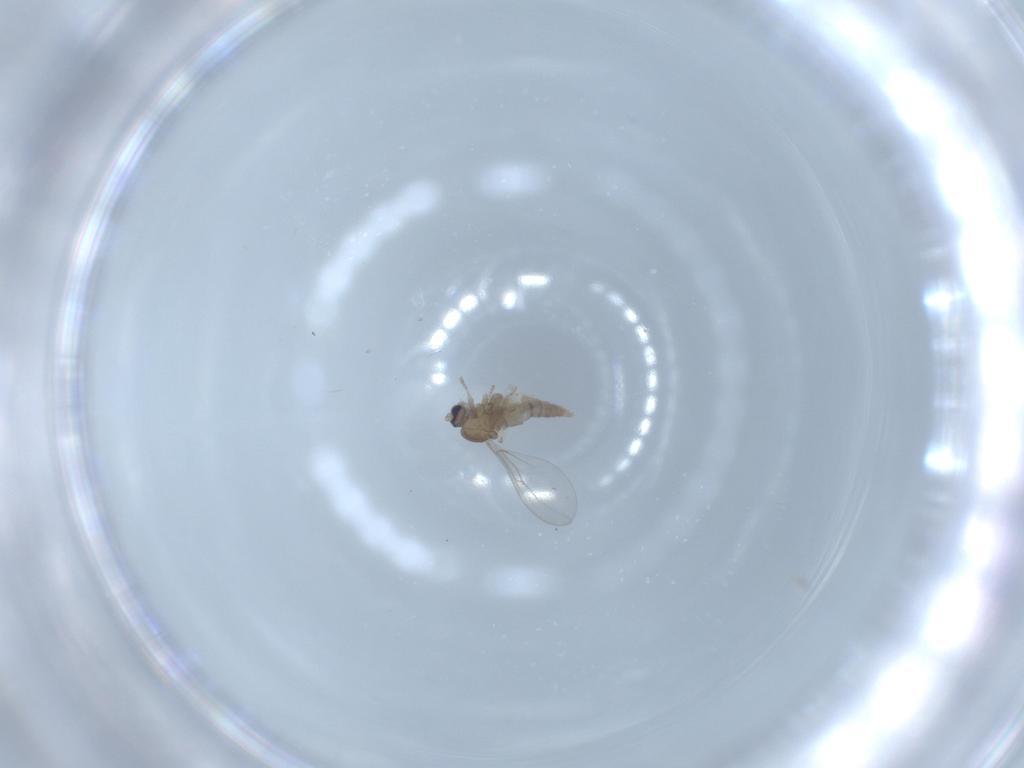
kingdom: Animalia
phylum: Arthropoda
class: Insecta
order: Diptera
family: Cecidomyiidae
